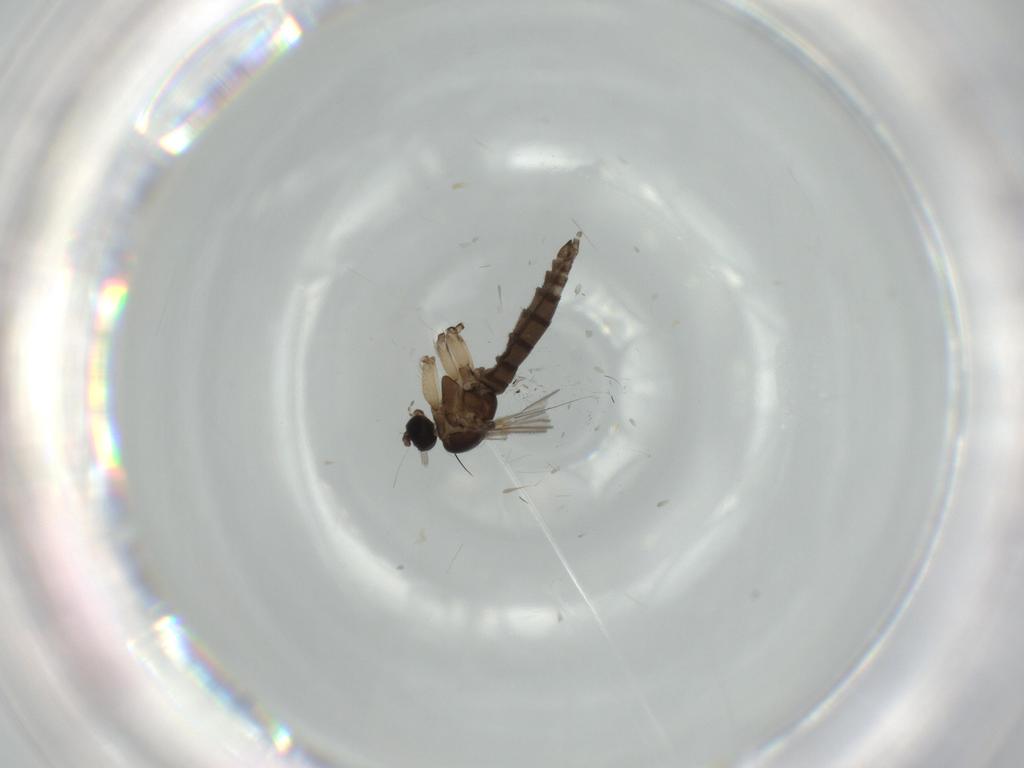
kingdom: Animalia
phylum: Arthropoda
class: Insecta
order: Diptera
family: Sciaridae
